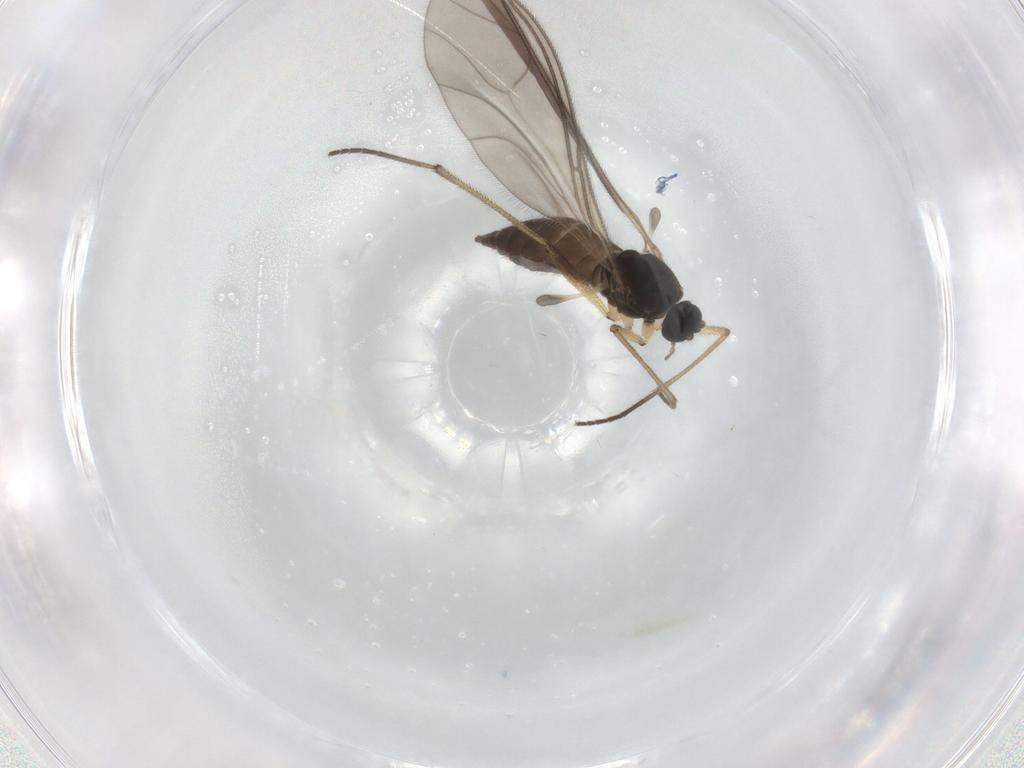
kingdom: Animalia
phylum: Arthropoda
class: Insecta
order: Diptera
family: Sciaridae
